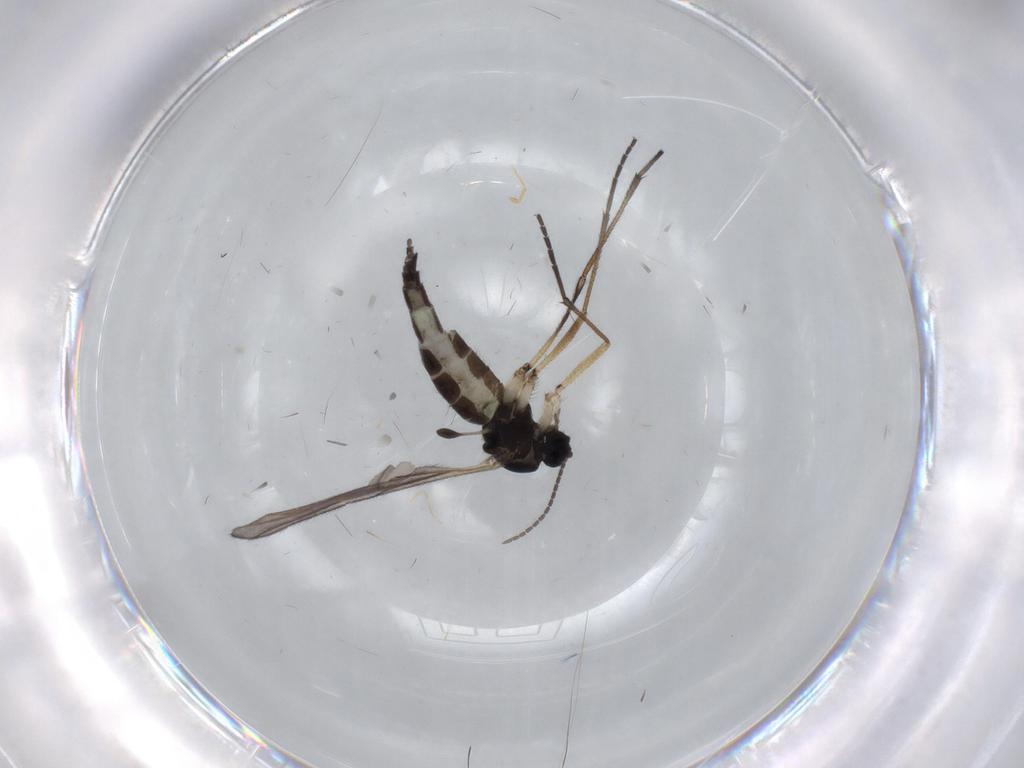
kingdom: Animalia
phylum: Arthropoda
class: Insecta
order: Diptera
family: Sciaridae
